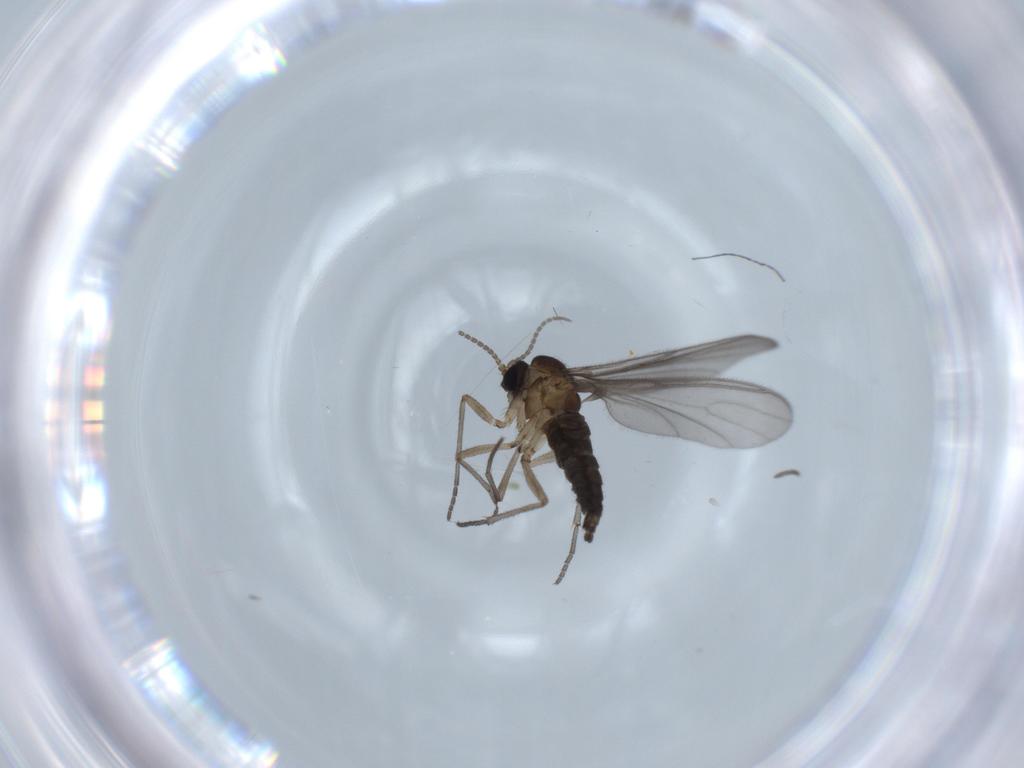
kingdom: Animalia
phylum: Arthropoda
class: Insecta
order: Diptera
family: Sciaridae
